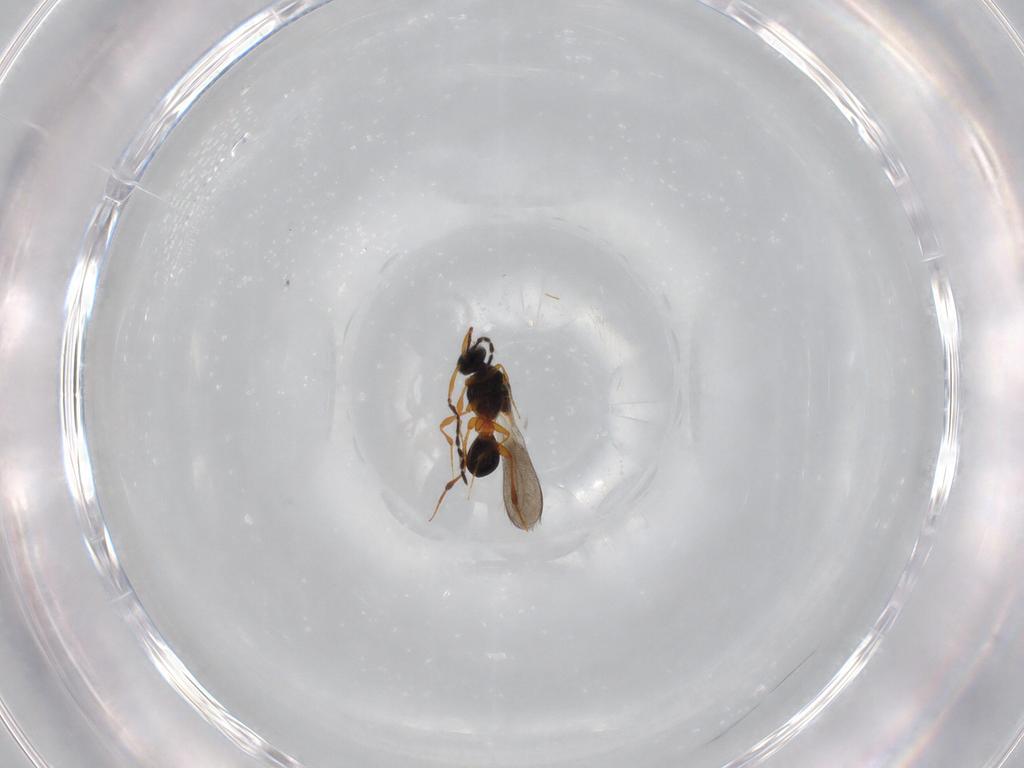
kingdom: Animalia
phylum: Arthropoda
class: Insecta
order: Hymenoptera
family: Platygastridae
